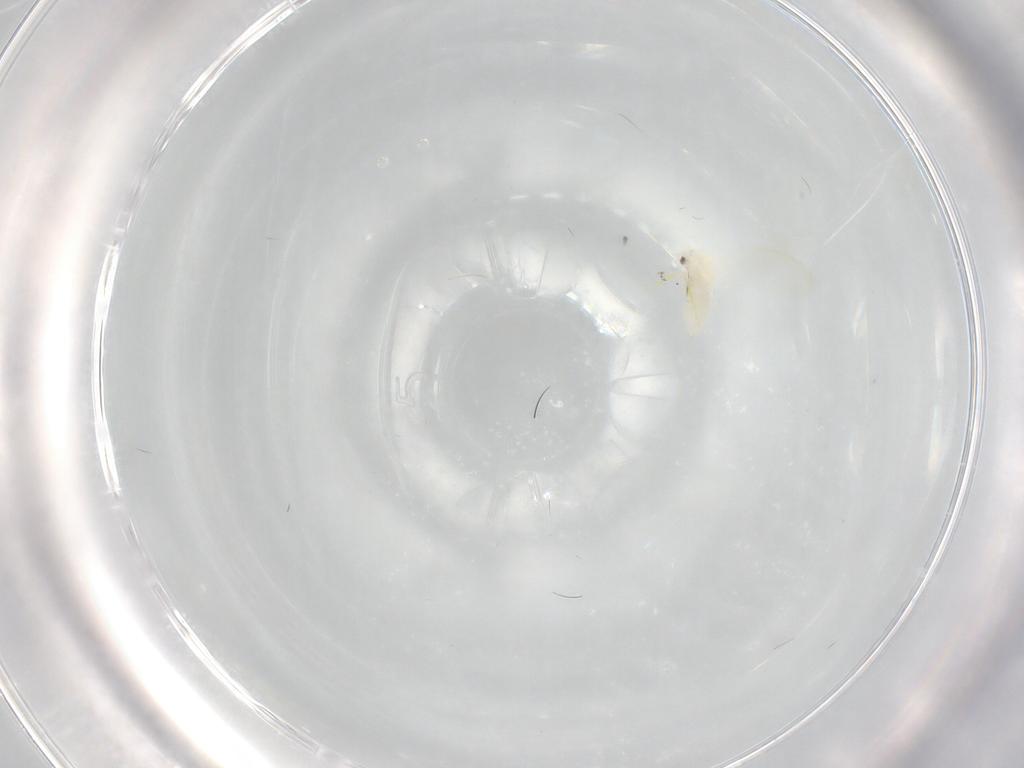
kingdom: Animalia
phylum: Arthropoda
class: Insecta
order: Hemiptera
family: Aleyrodidae
